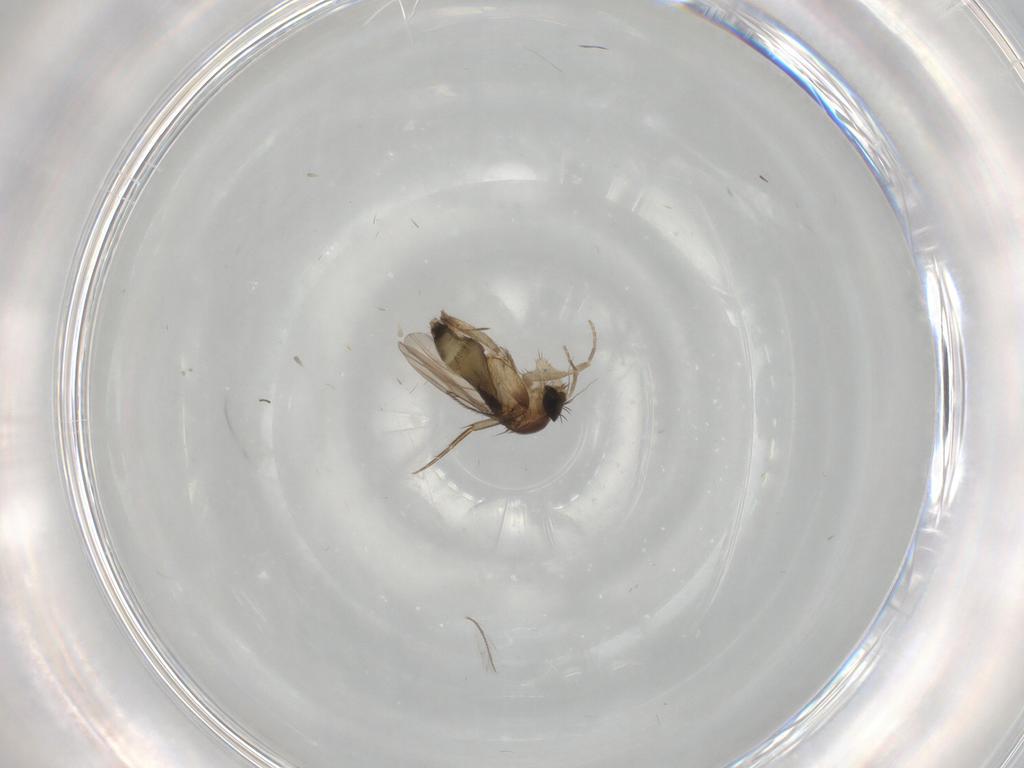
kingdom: Animalia
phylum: Arthropoda
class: Insecta
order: Diptera
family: Phoridae
